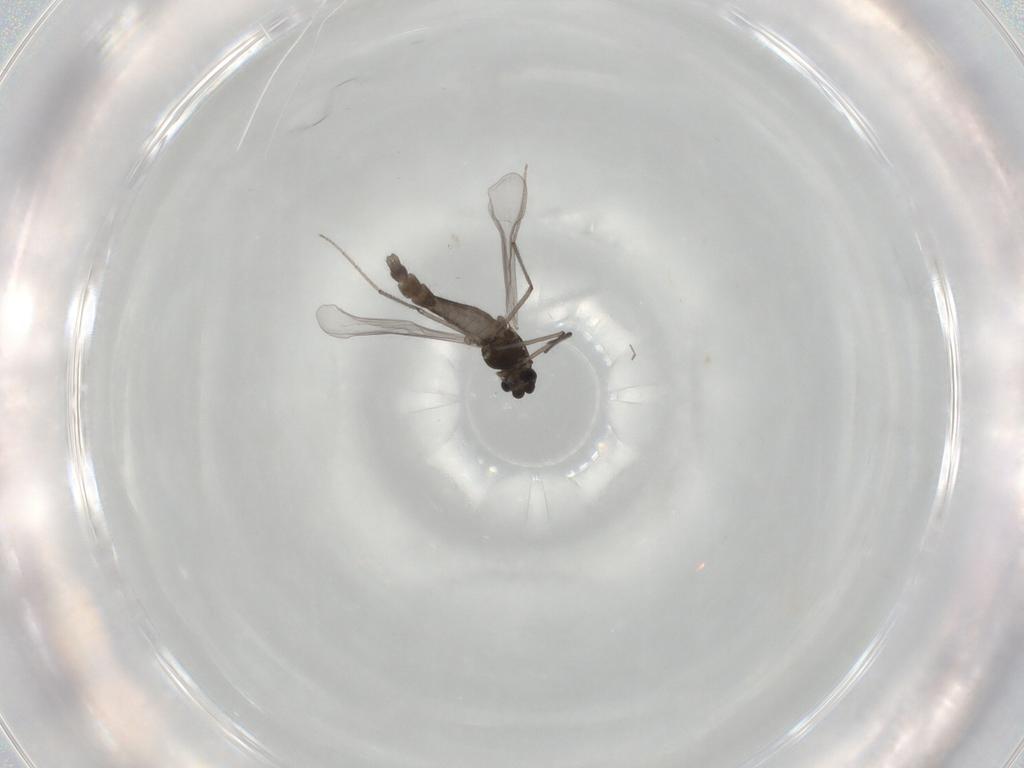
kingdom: Animalia
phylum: Arthropoda
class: Insecta
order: Diptera
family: Chironomidae
